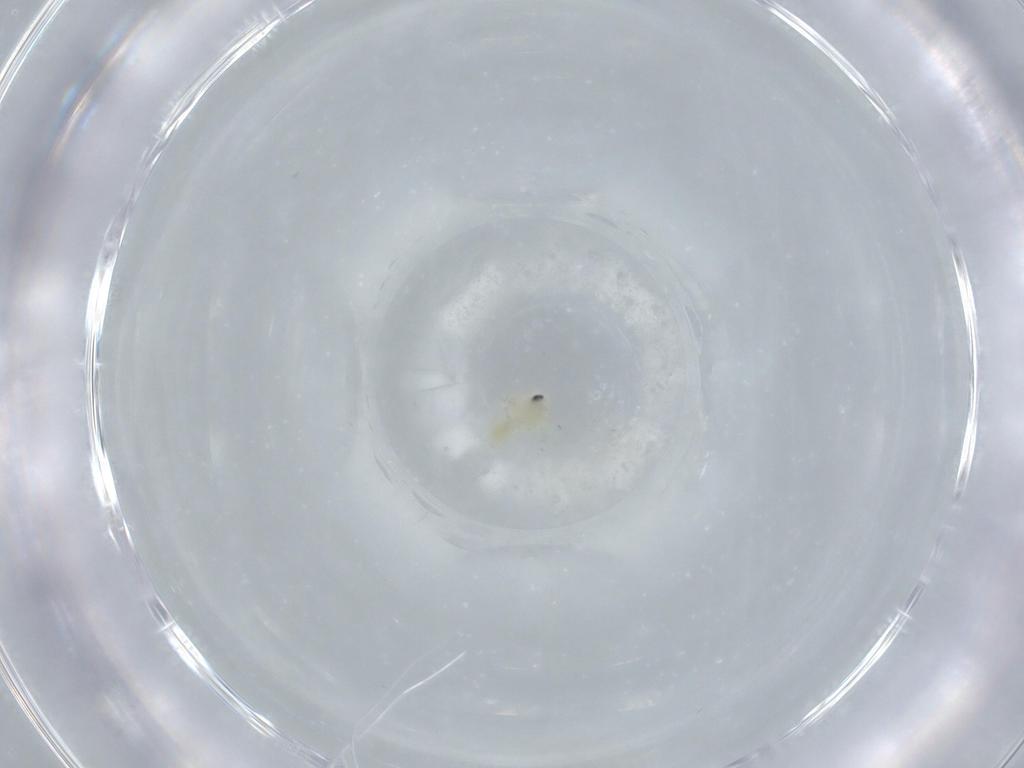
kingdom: Animalia
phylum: Arthropoda
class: Insecta
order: Hemiptera
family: Aleyrodidae
